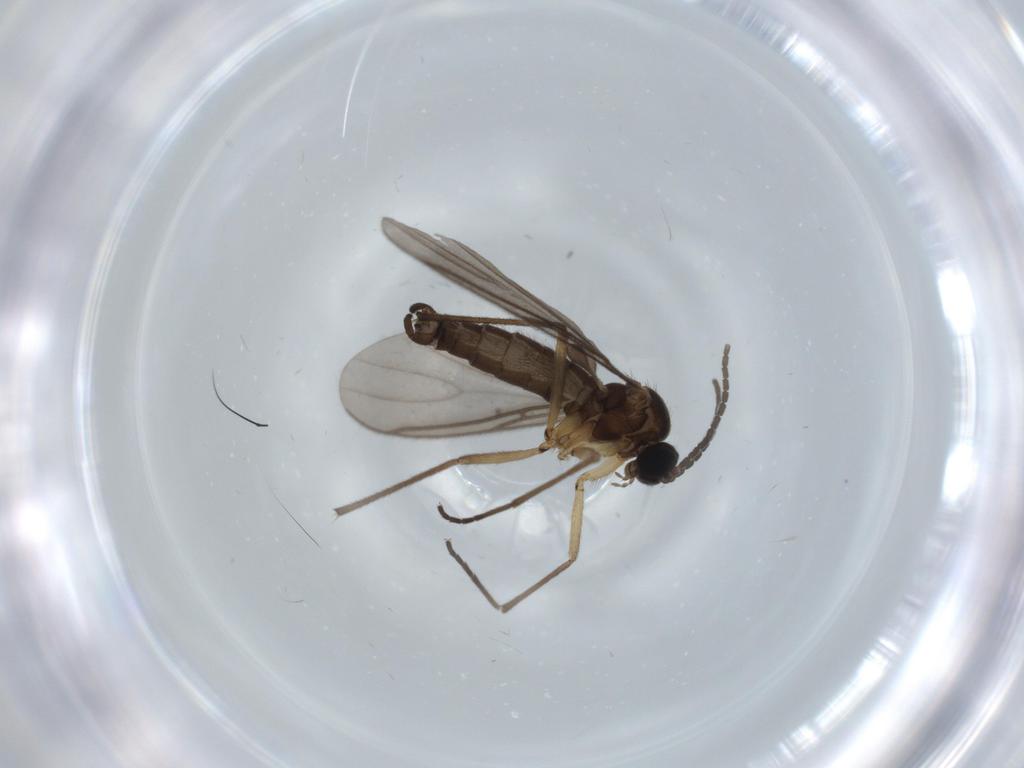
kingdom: Animalia
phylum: Arthropoda
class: Insecta
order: Diptera
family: Sciaridae
